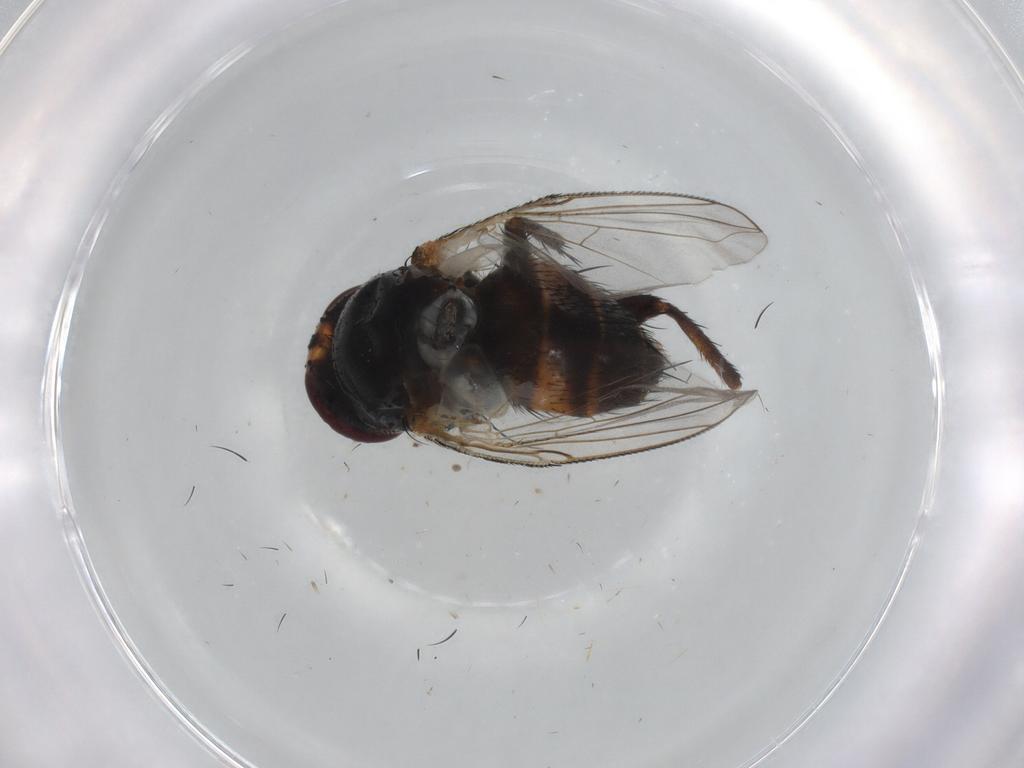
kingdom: Animalia
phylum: Arthropoda
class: Insecta
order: Diptera
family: Tachinidae
